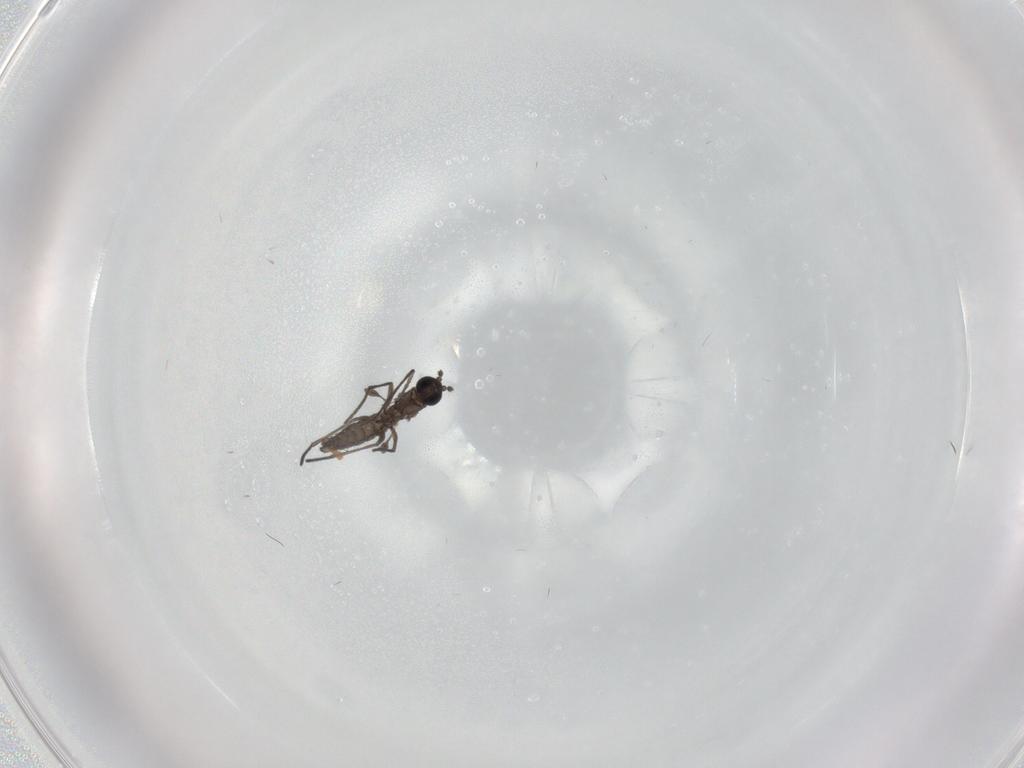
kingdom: Animalia
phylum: Arthropoda
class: Insecta
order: Diptera
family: Sciaridae
